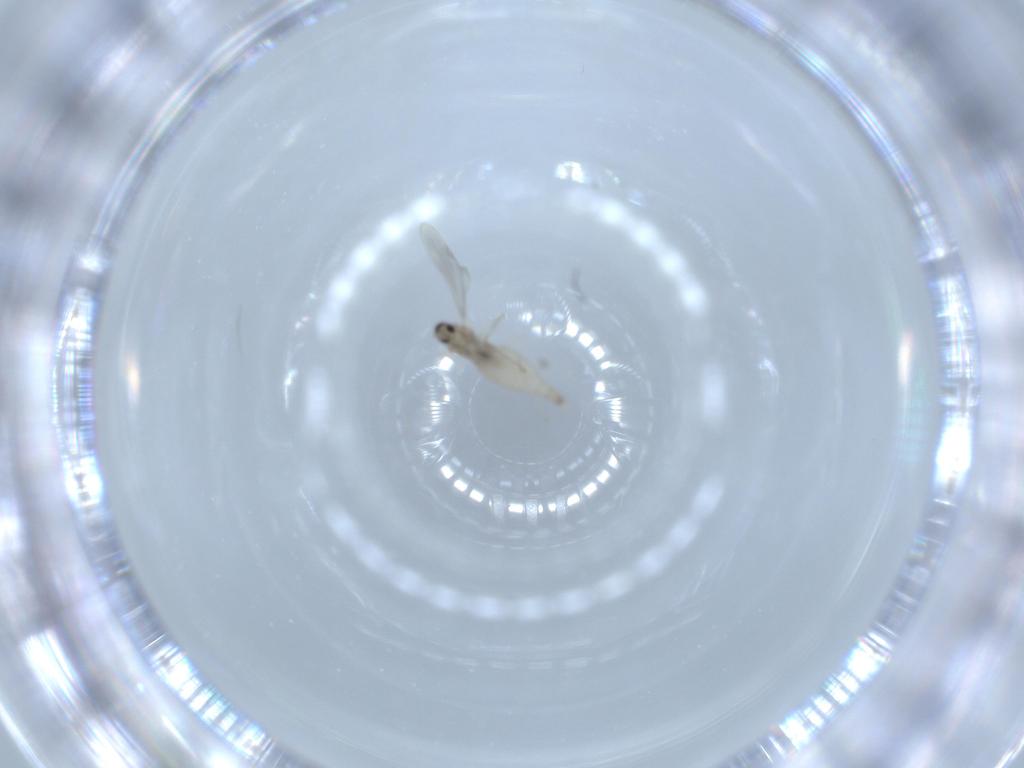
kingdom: Animalia
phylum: Arthropoda
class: Insecta
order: Diptera
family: Cecidomyiidae
